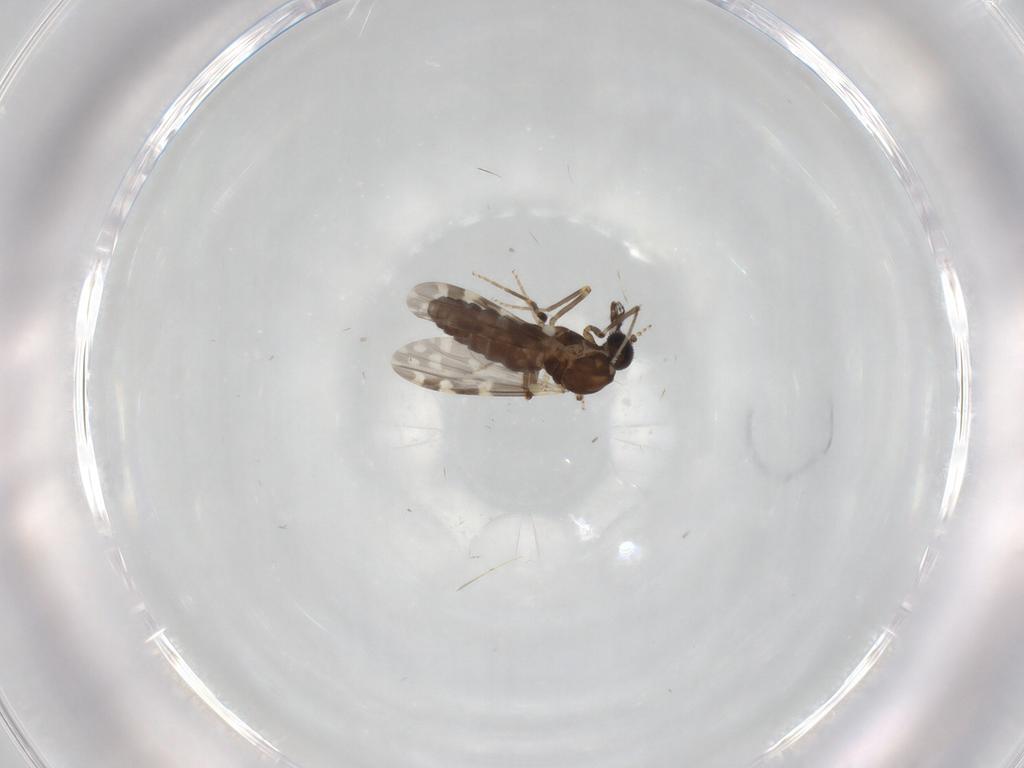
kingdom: Animalia
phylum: Arthropoda
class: Insecta
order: Diptera
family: Ceratopogonidae
